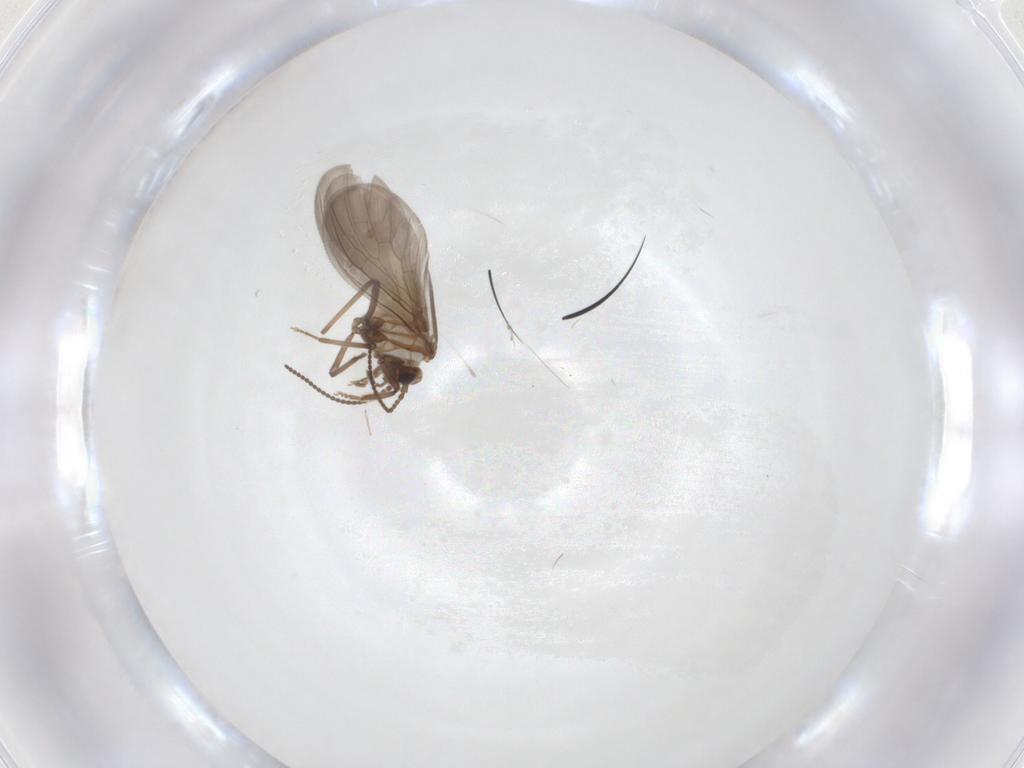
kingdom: Animalia
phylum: Arthropoda
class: Insecta
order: Neuroptera
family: Coniopterygidae
